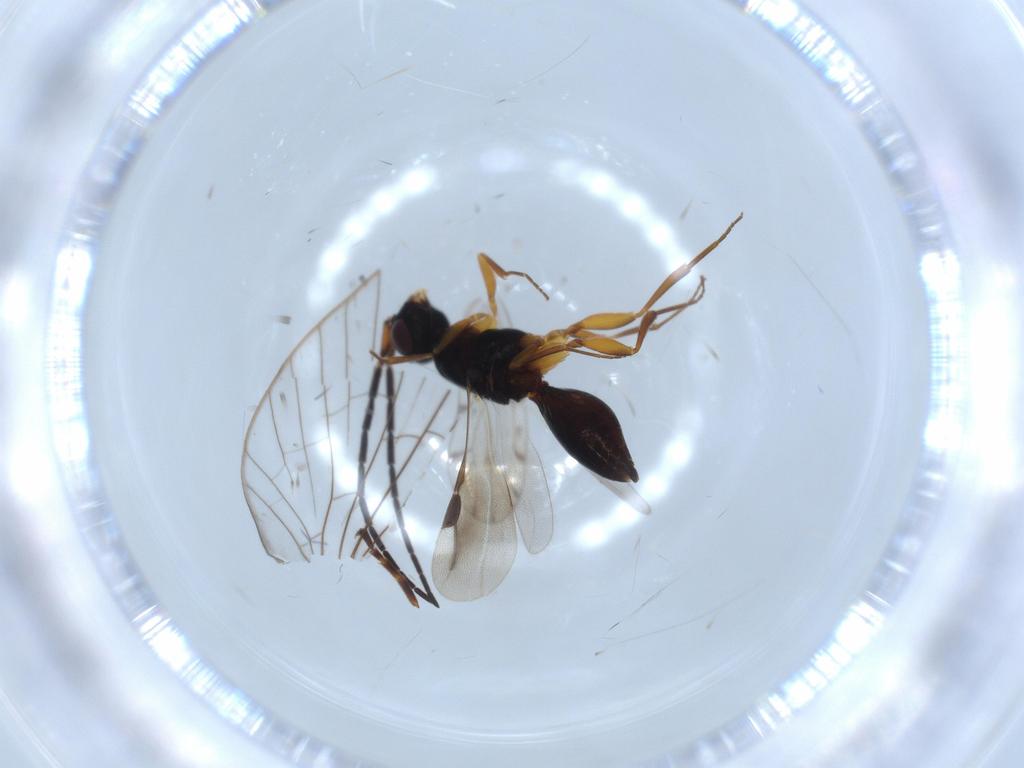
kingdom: Animalia
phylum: Arthropoda
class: Insecta
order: Hymenoptera
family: Ichneumonidae
